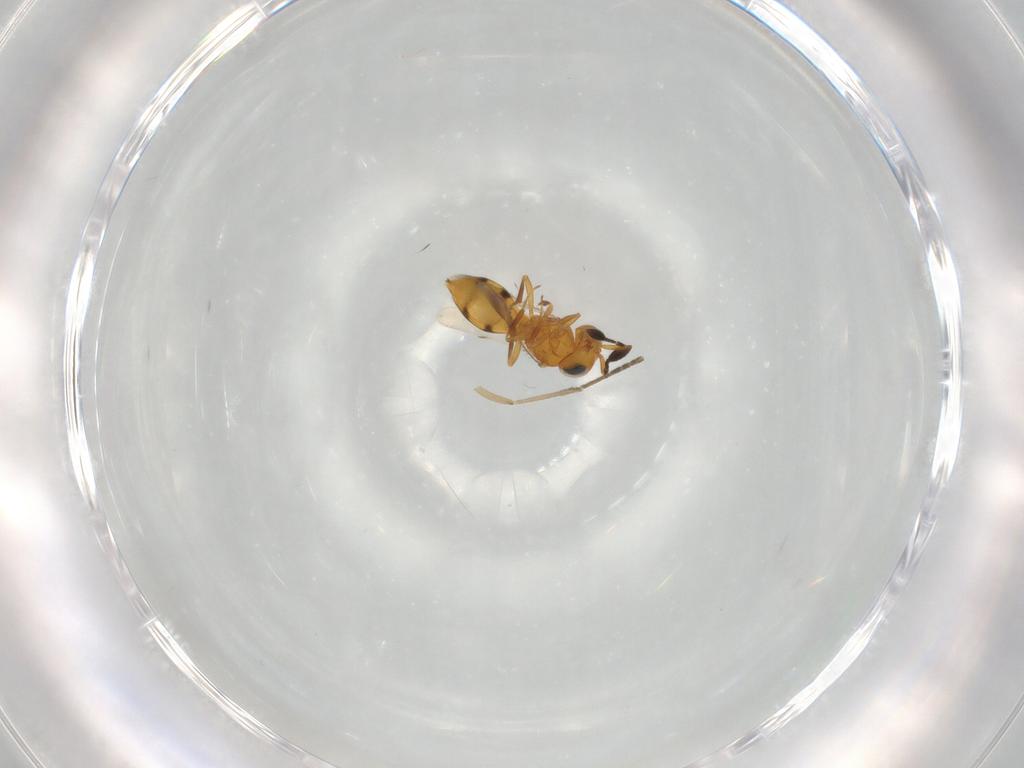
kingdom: Animalia
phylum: Arthropoda
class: Insecta
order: Hymenoptera
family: Scelionidae
